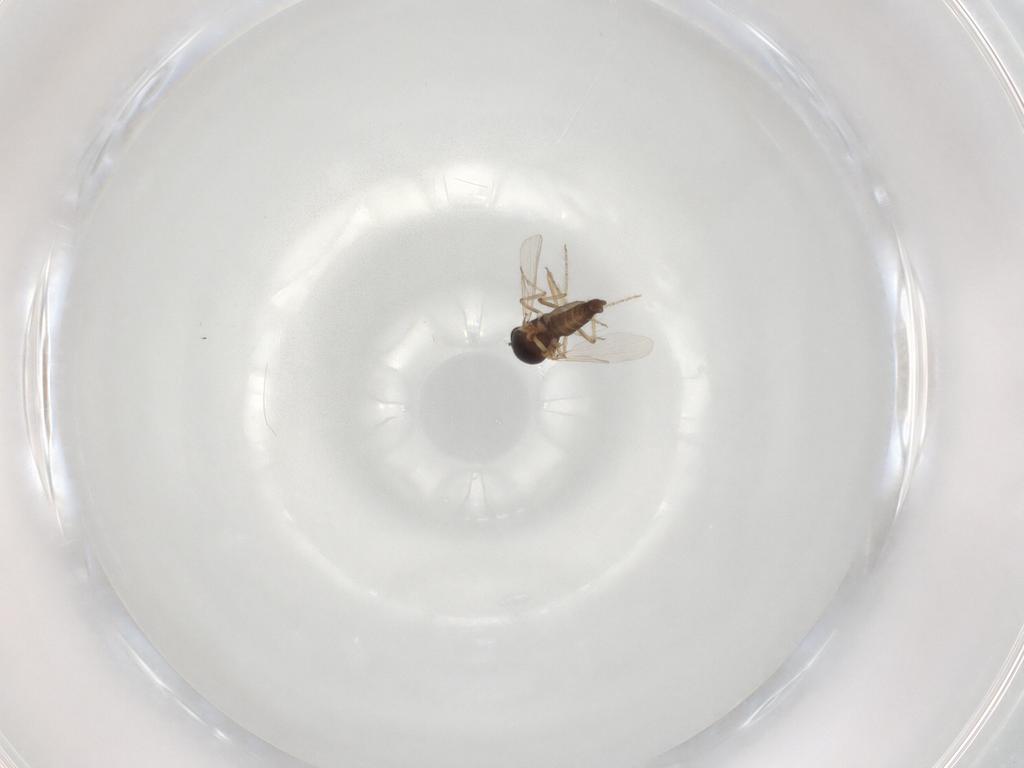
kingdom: Animalia
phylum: Arthropoda
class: Insecta
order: Diptera
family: Ceratopogonidae
